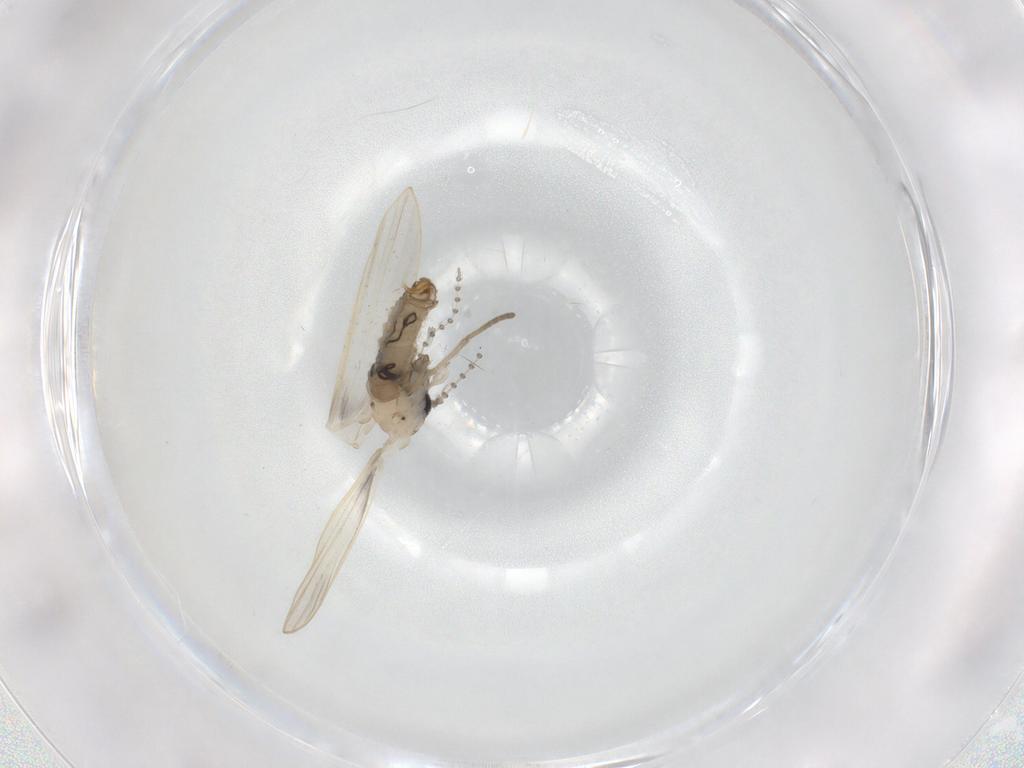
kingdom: Animalia
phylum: Arthropoda
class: Insecta
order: Diptera
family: Psychodidae
